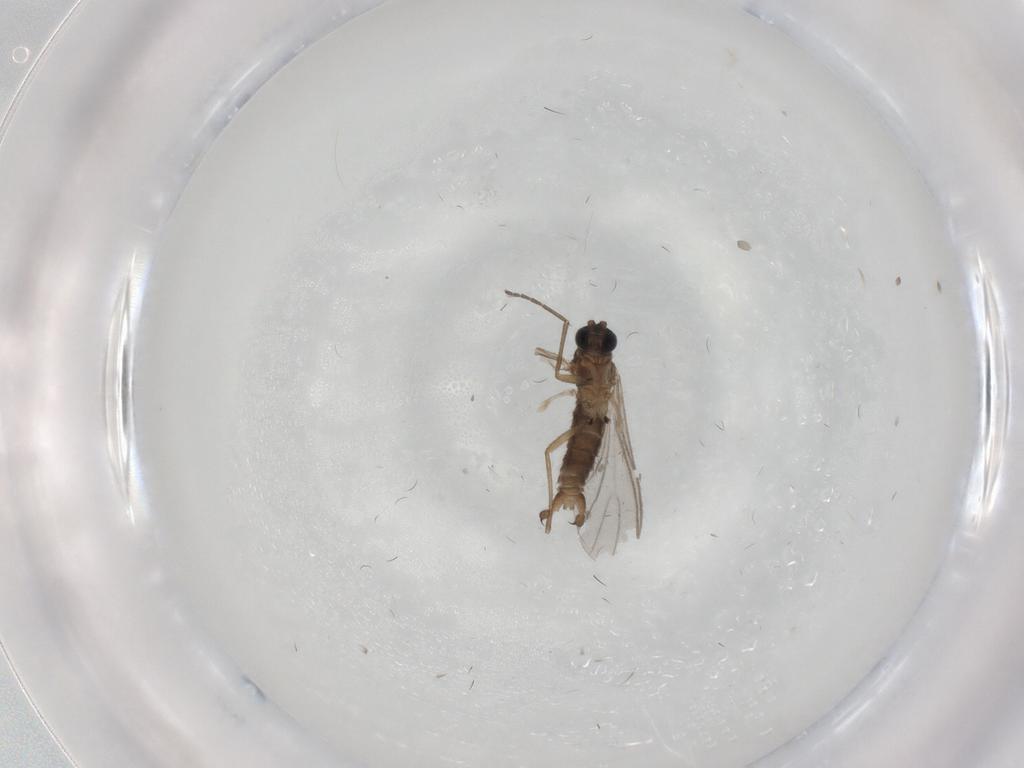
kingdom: Animalia
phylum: Arthropoda
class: Insecta
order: Diptera
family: Sciaridae
